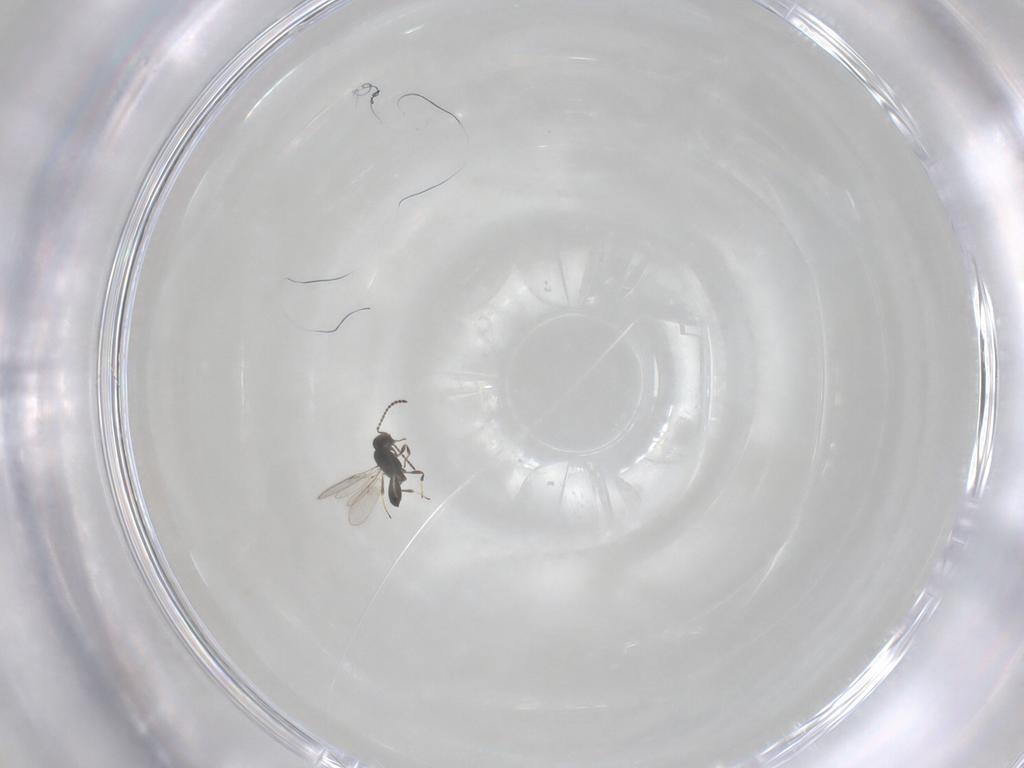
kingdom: Animalia
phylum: Arthropoda
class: Insecta
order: Hymenoptera
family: Scelionidae
